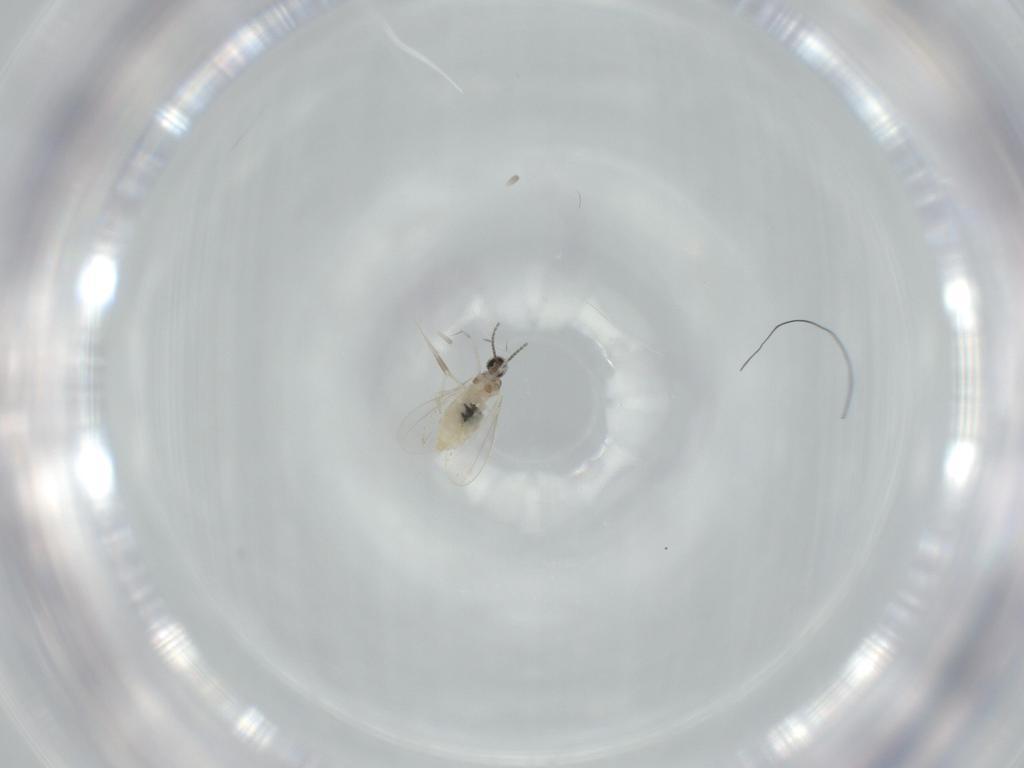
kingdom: Animalia
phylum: Arthropoda
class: Insecta
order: Diptera
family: Cecidomyiidae
